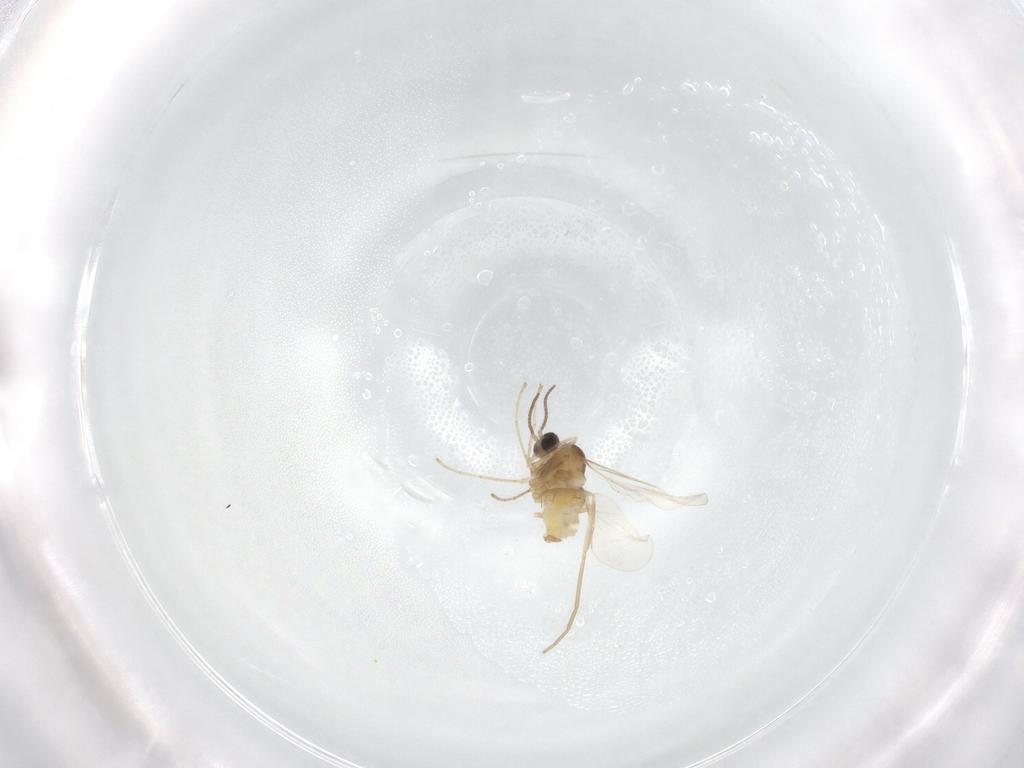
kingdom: Animalia
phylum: Arthropoda
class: Insecta
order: Diptera
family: Cecidomyiidae
